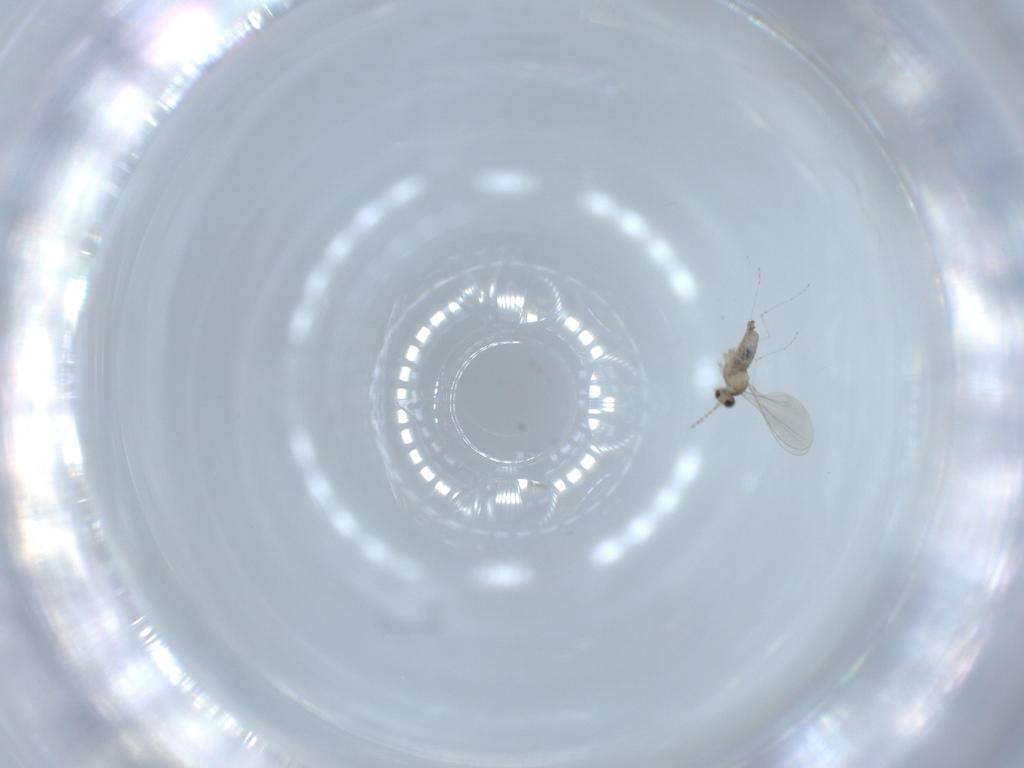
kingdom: Animalia
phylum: Arthropoda
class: Insecta
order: Diptera
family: Cecidomyiidae
